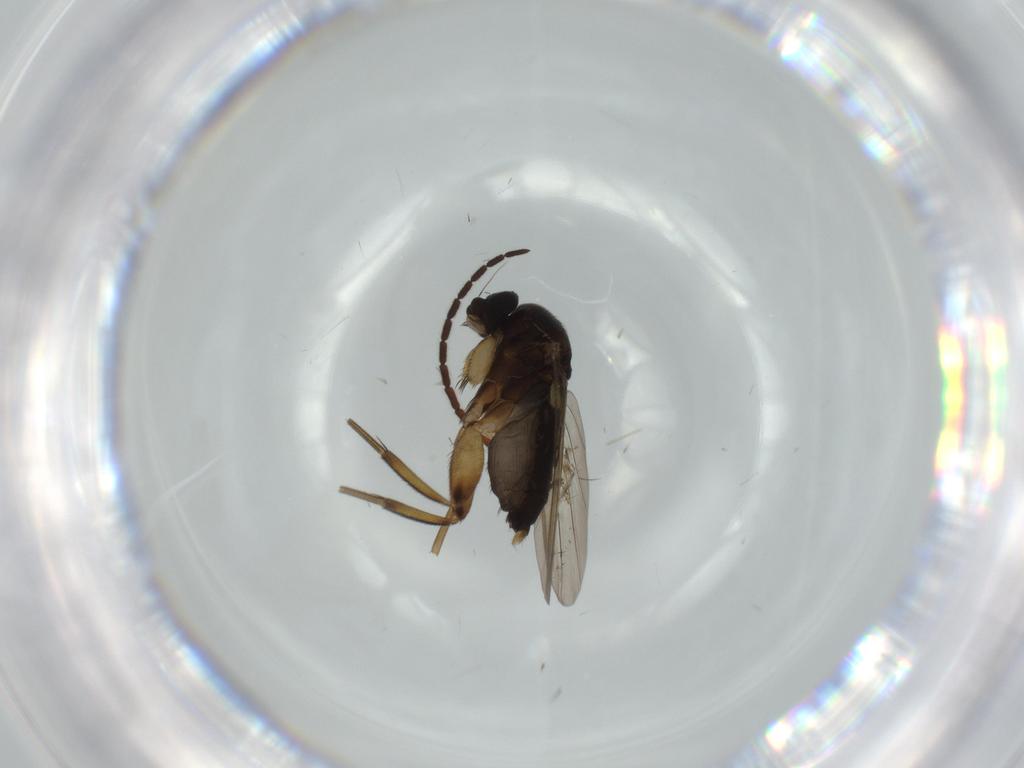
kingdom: Animalia
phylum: Arthropoda
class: Insecta
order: Diptera
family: Phoridae
